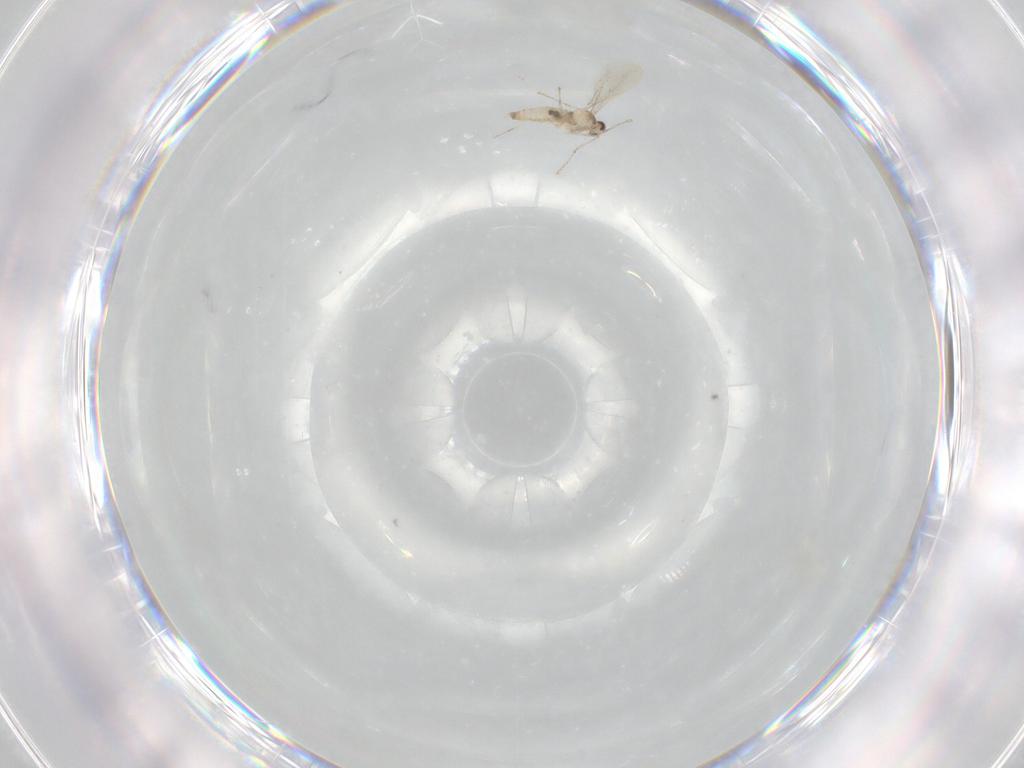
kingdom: Animalia
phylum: Arthropoda
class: Insecta
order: Diptera
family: Cecidomyiidae
